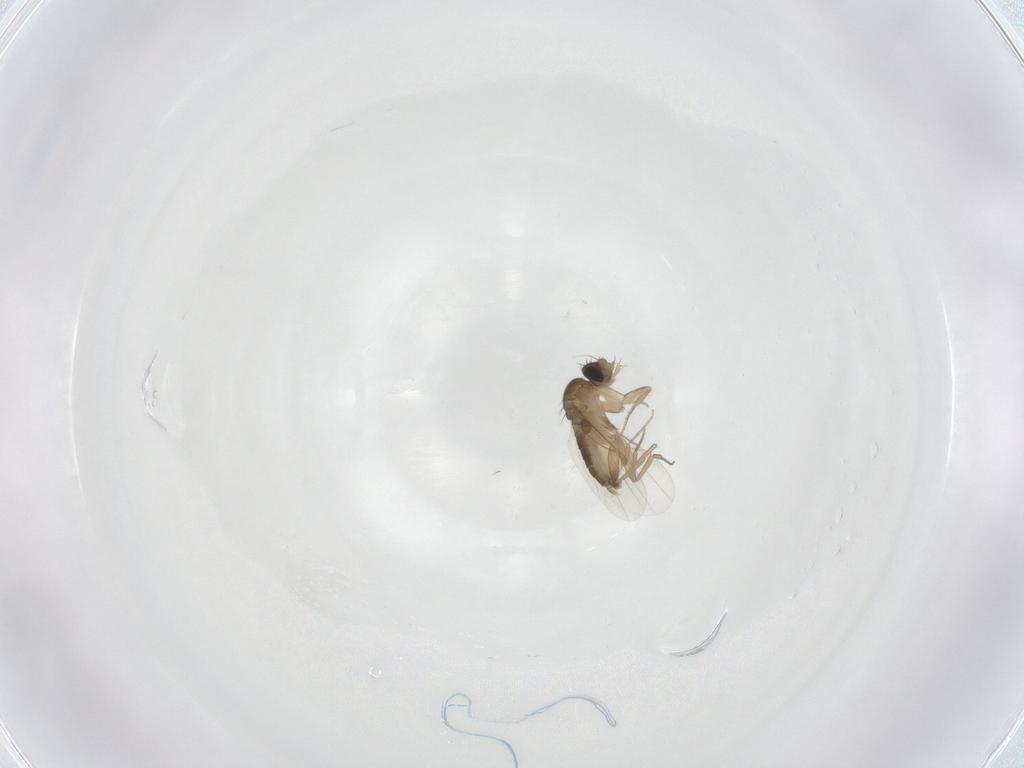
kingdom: Animalia
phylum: Arthropoda
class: Insecta
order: Diptera
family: Phoridae
